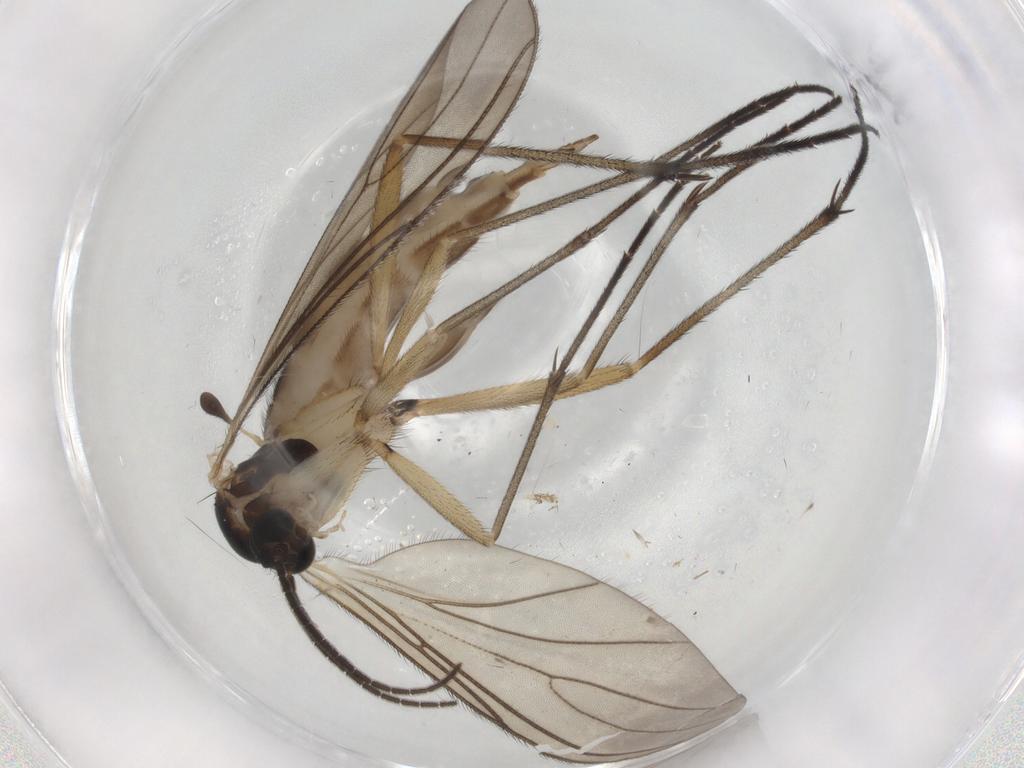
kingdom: Animalia
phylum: Arthropoda
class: Insecta
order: Diptera
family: Sciaridae
